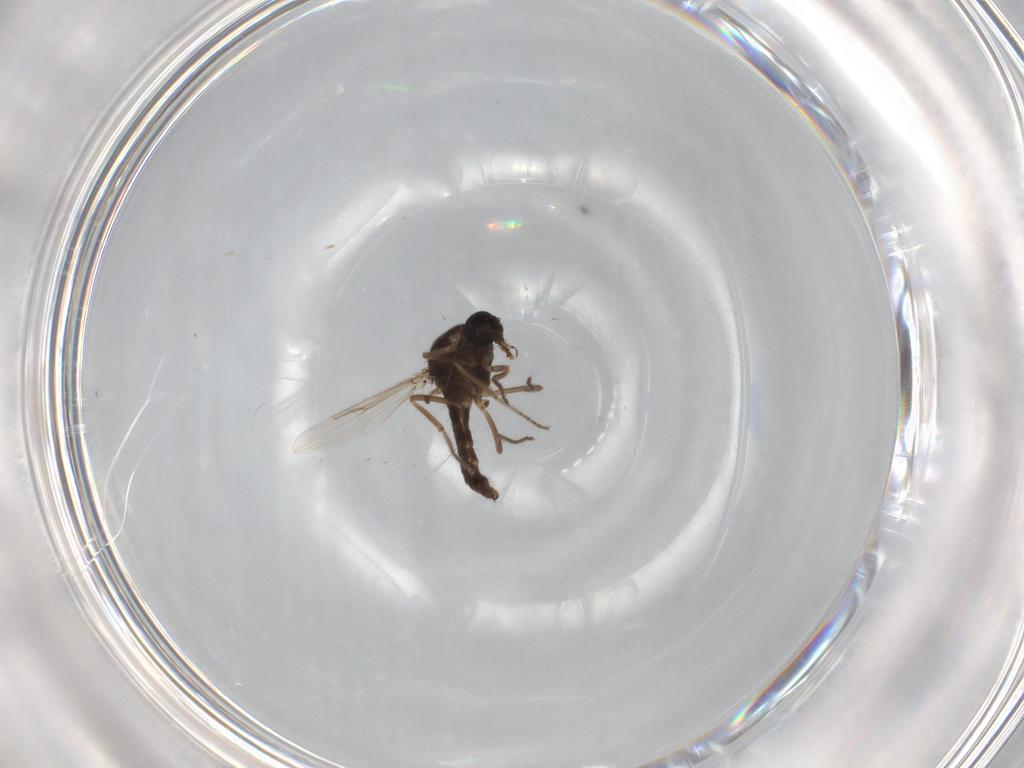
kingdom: Animalia
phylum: Arthropoda
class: Insecta
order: Diptera
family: Ceratopogonidae
